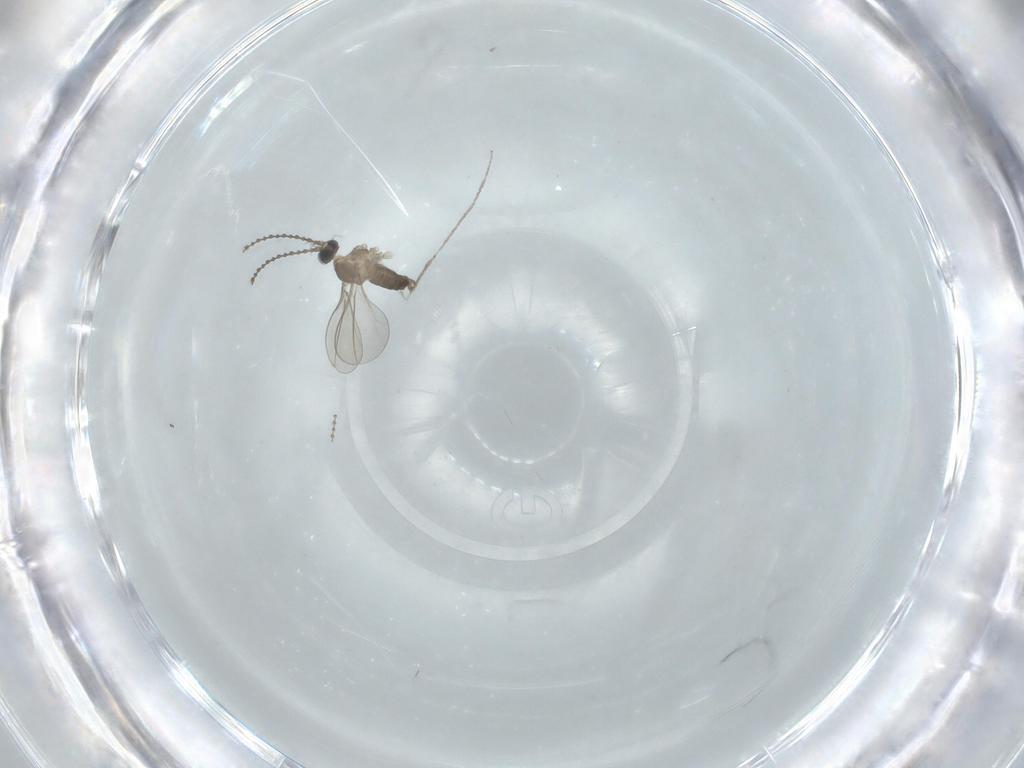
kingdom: Animalia
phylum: Arthropoda
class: Insecta
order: Diptera
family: Cecidomyiidae
